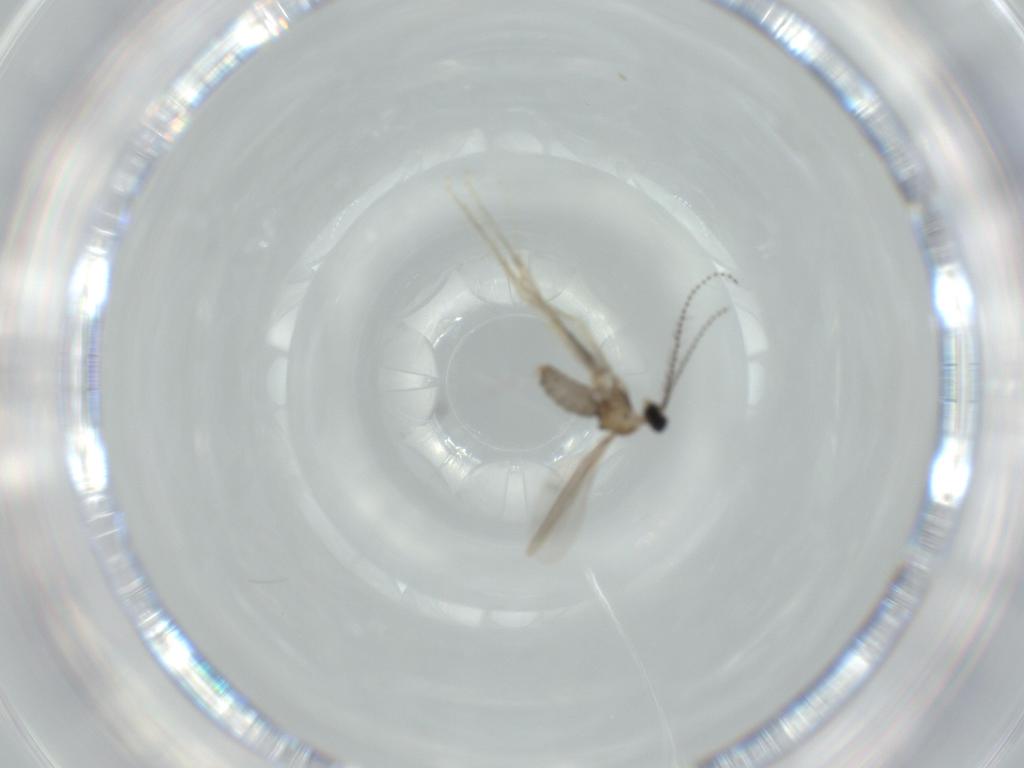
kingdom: Animalia
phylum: Arthropoda
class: Insecta
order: Diptera
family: Cecidomyiidae
